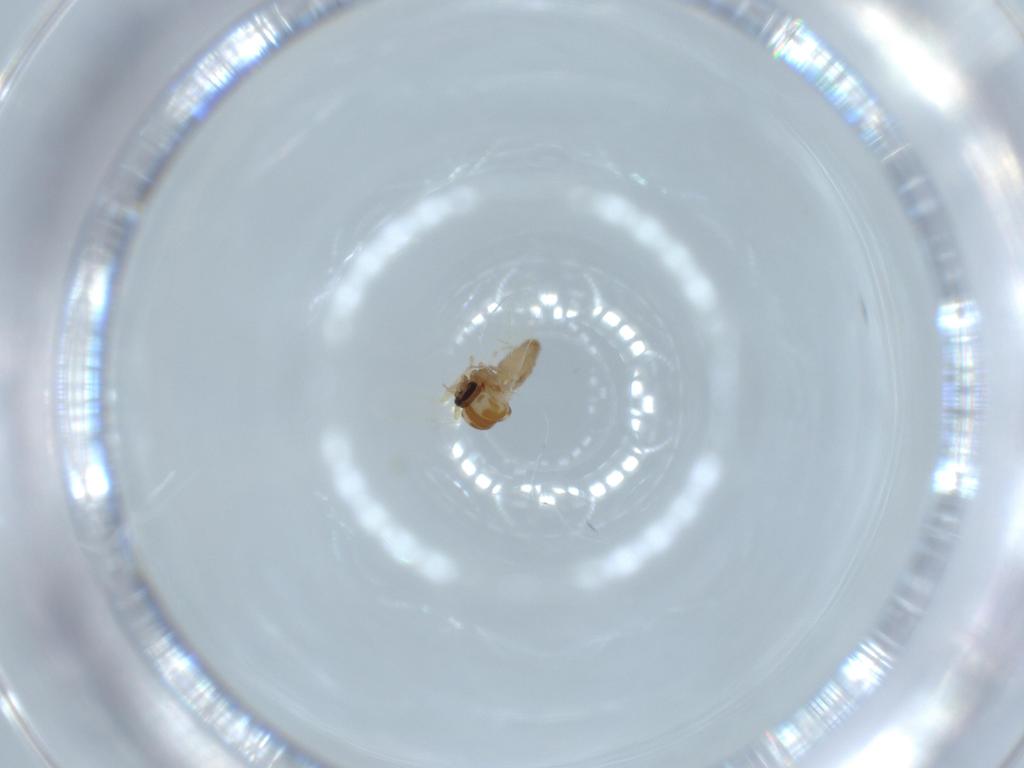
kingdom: Animalia
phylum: Arthropoda
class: Insecta
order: Diptera
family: Ceratopogonidae
